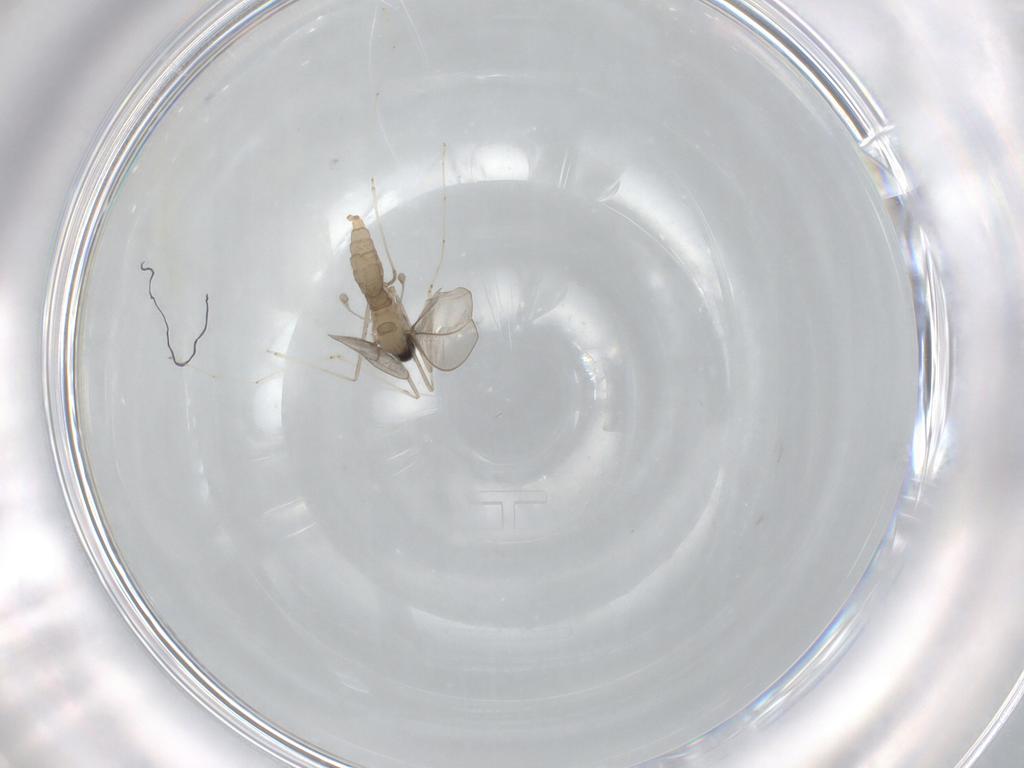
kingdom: Animalia
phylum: Arthropoda
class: Insecta
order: Diptera
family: Cecidomyiidae
